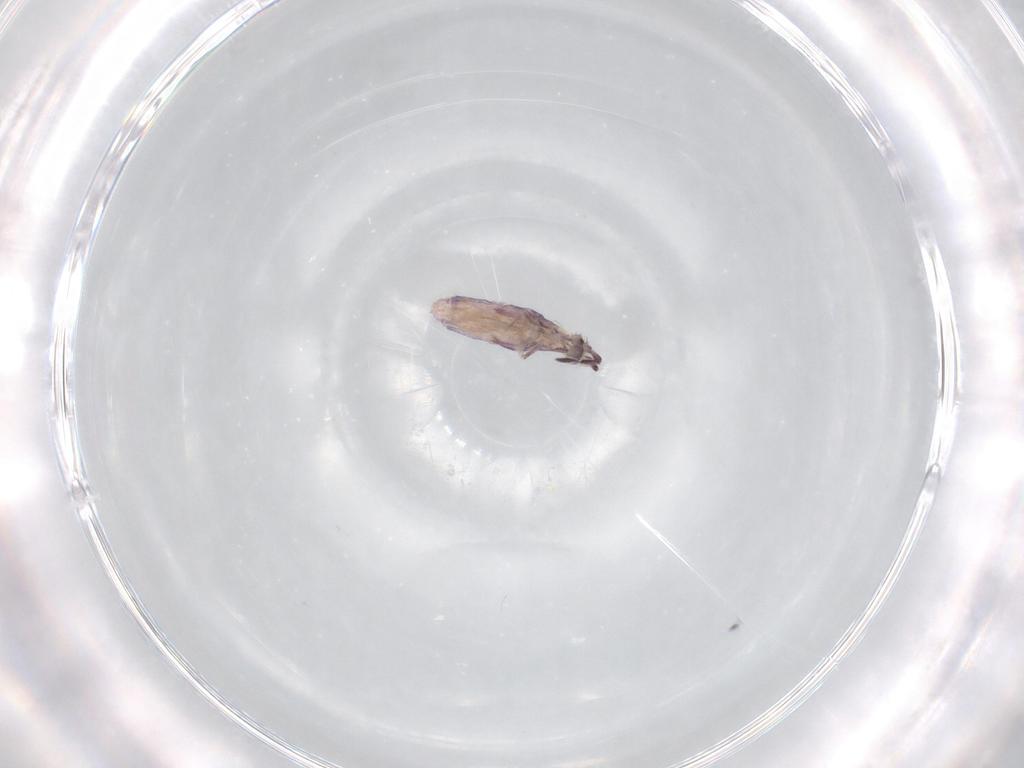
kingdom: Animalia
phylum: Arthropoda
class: Collembola
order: Poduromorpha
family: Hypogastruridae
